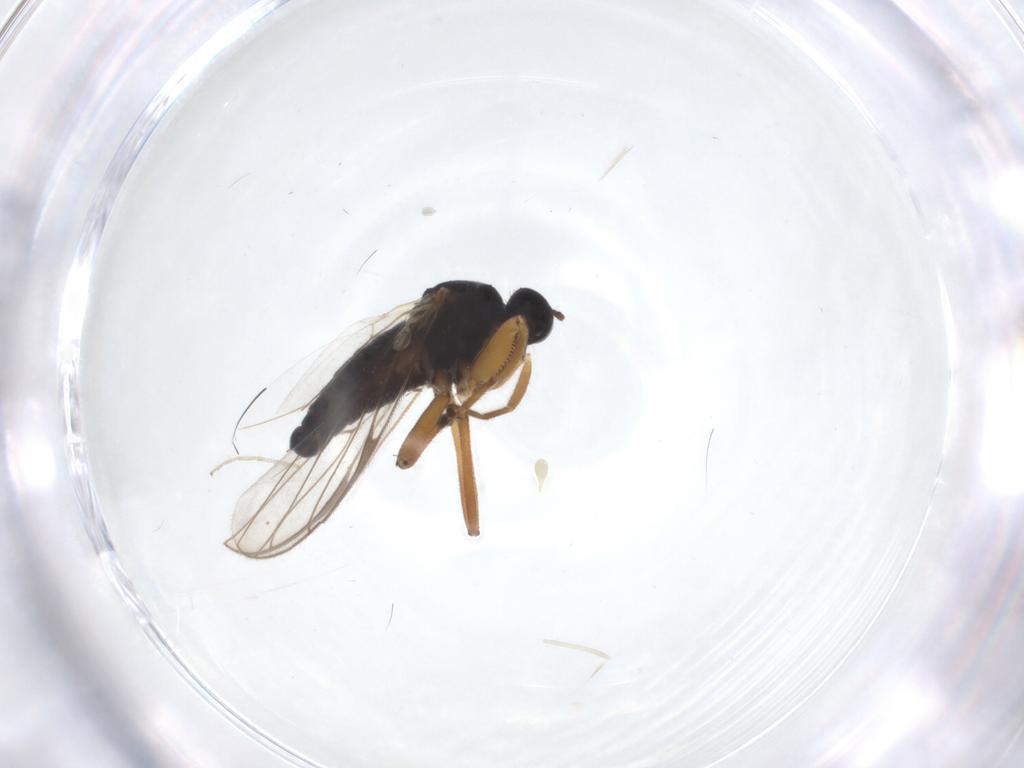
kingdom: Animalia
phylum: Arthropoda
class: Insecta
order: Diptera
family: Hybotidae
